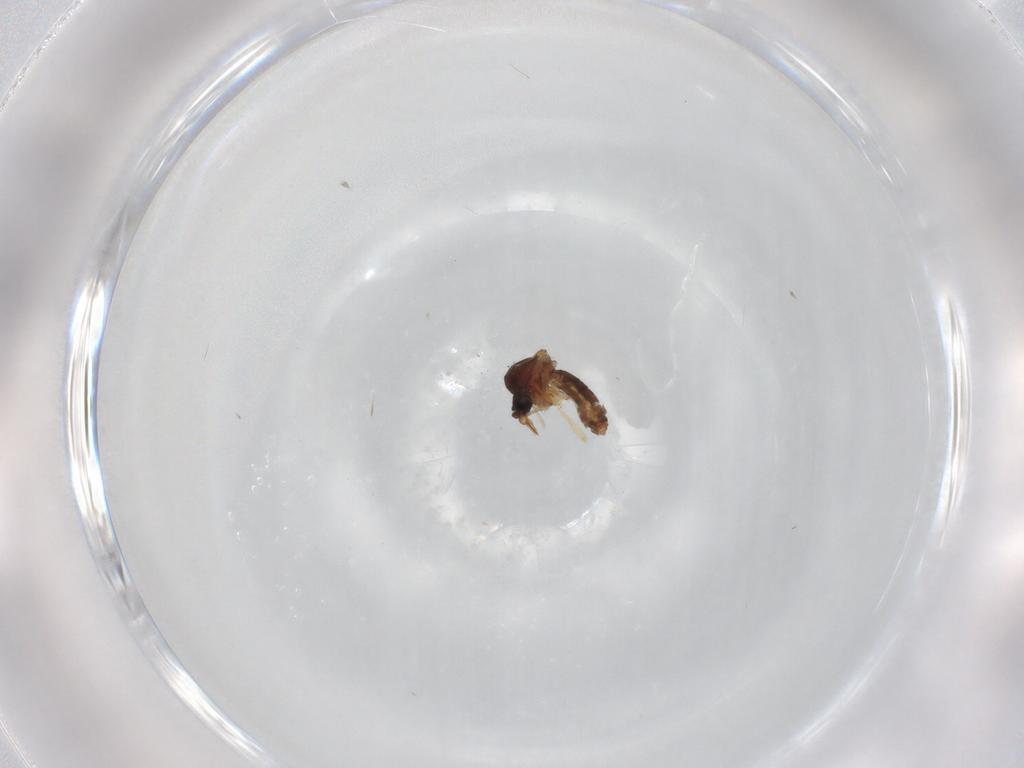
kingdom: Animalia
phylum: Arthropoda
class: Insecta
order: Diptera
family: Ceratopogonidae
